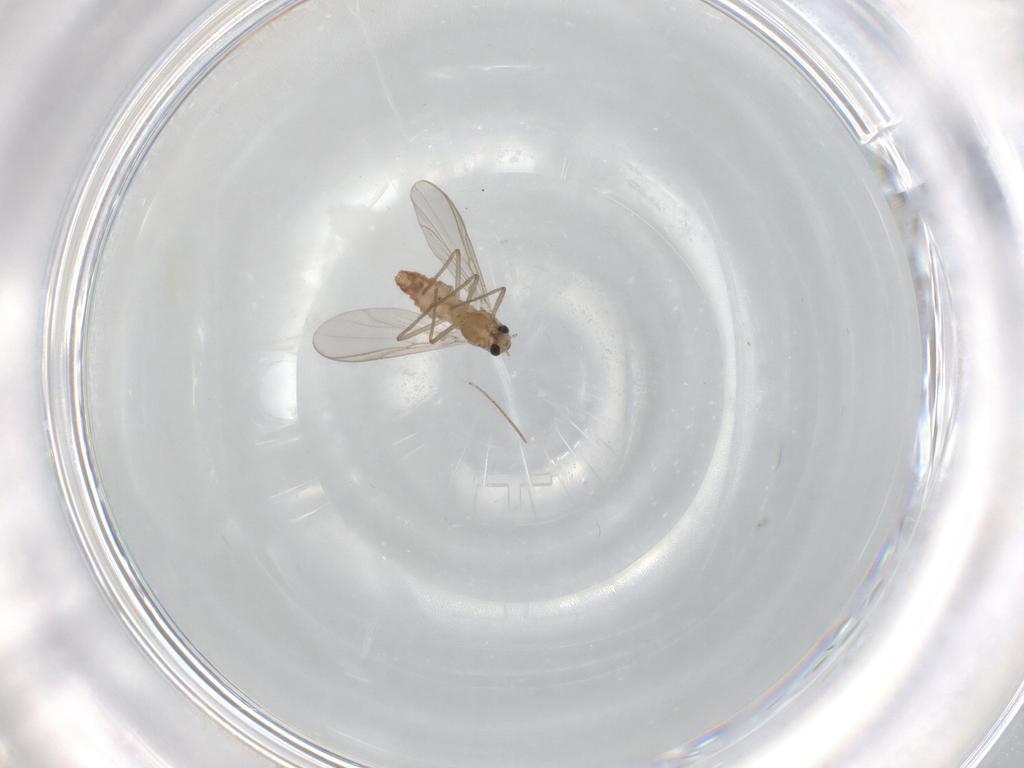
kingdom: Animalia
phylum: Arthropoda
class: Insecta
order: Diptera
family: Chironomidae
